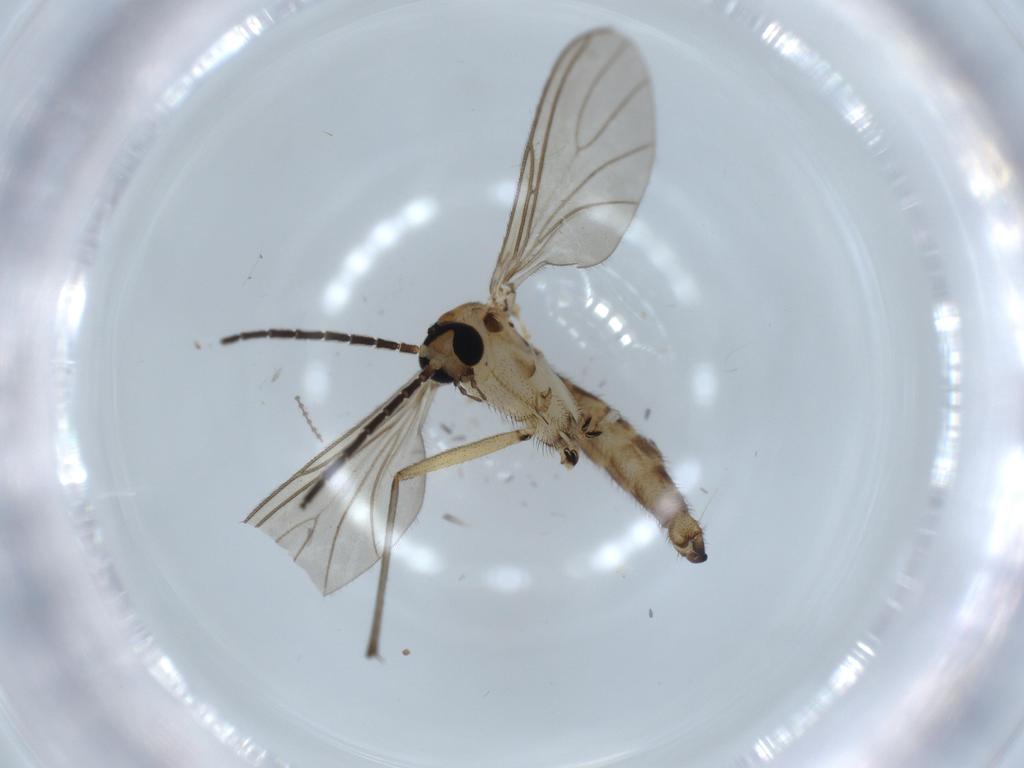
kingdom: Animalia
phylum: Arthropoda
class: Insecta
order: Diptera
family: Sciaridae
